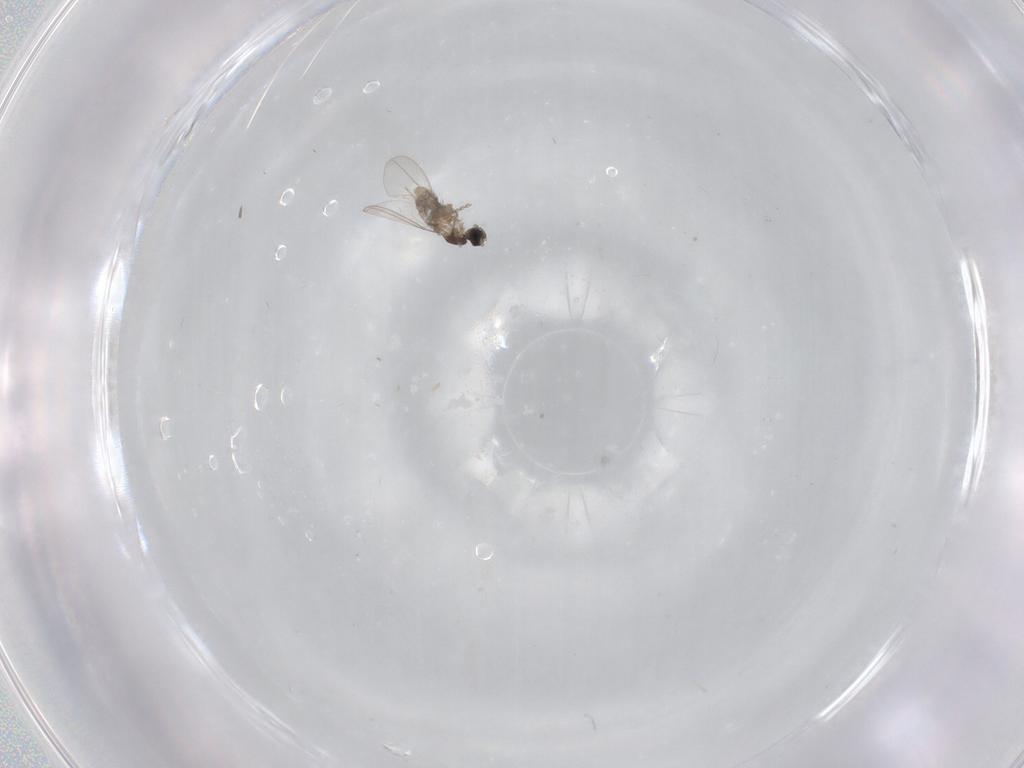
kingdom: Animalia
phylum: Arthropoda
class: Insecta
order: Diptera
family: Cecidomyiidae
